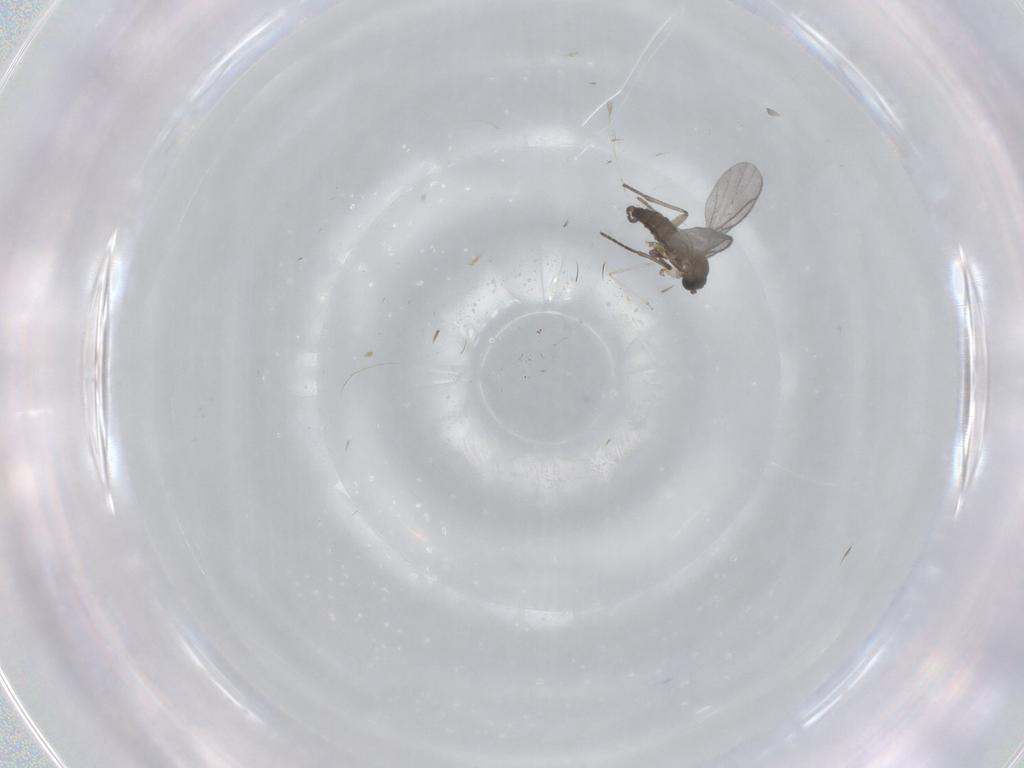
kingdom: Animalia
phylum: Arthropoda
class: Insecta
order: Diptera
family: Sciaridae
